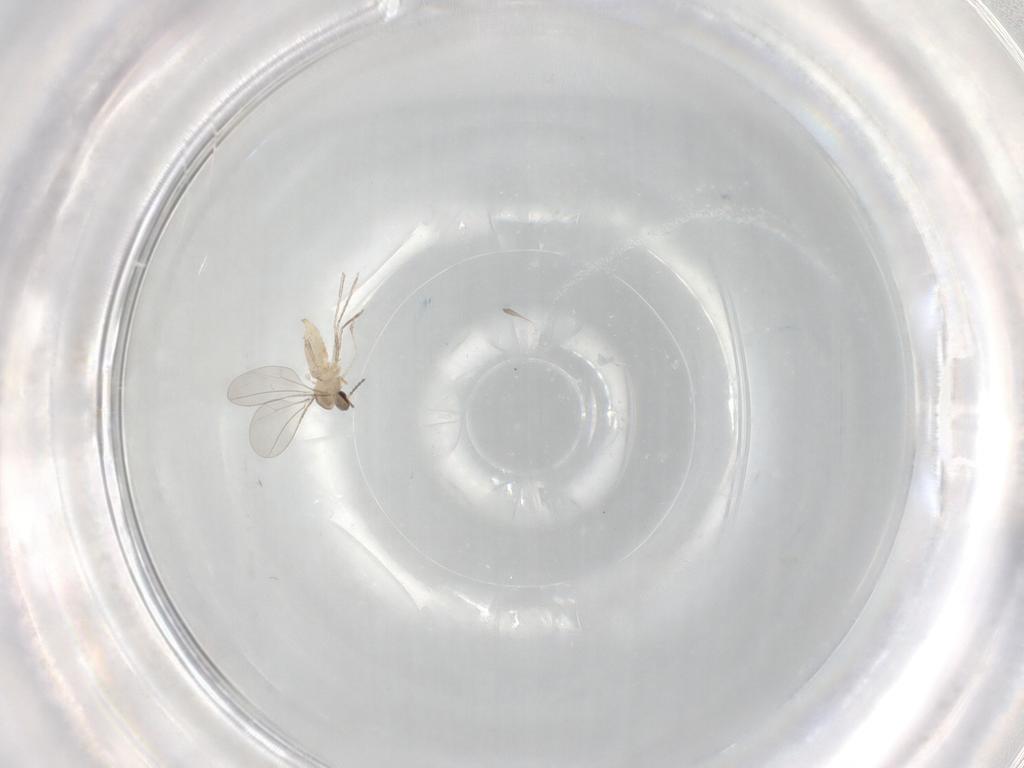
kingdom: Animalia
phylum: Arthropoda
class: Insecta
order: Diptera
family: Cecidomyiidae
